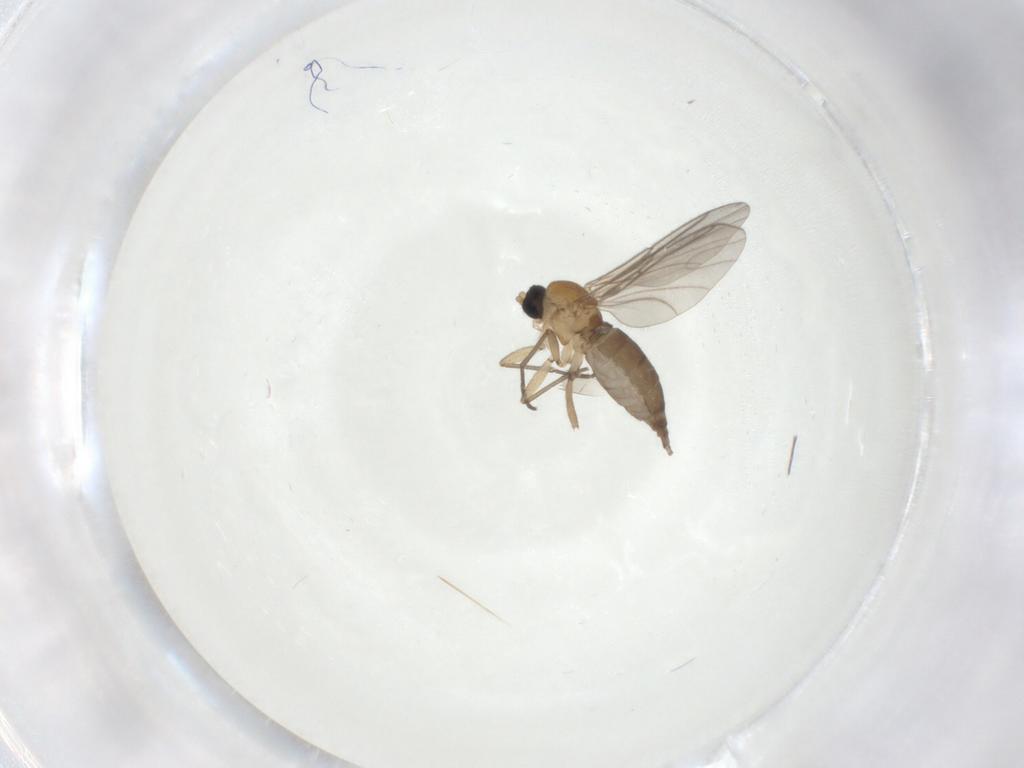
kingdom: Animalia
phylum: Arthropoda
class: Insecta
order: Diptera
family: Sciaridae
